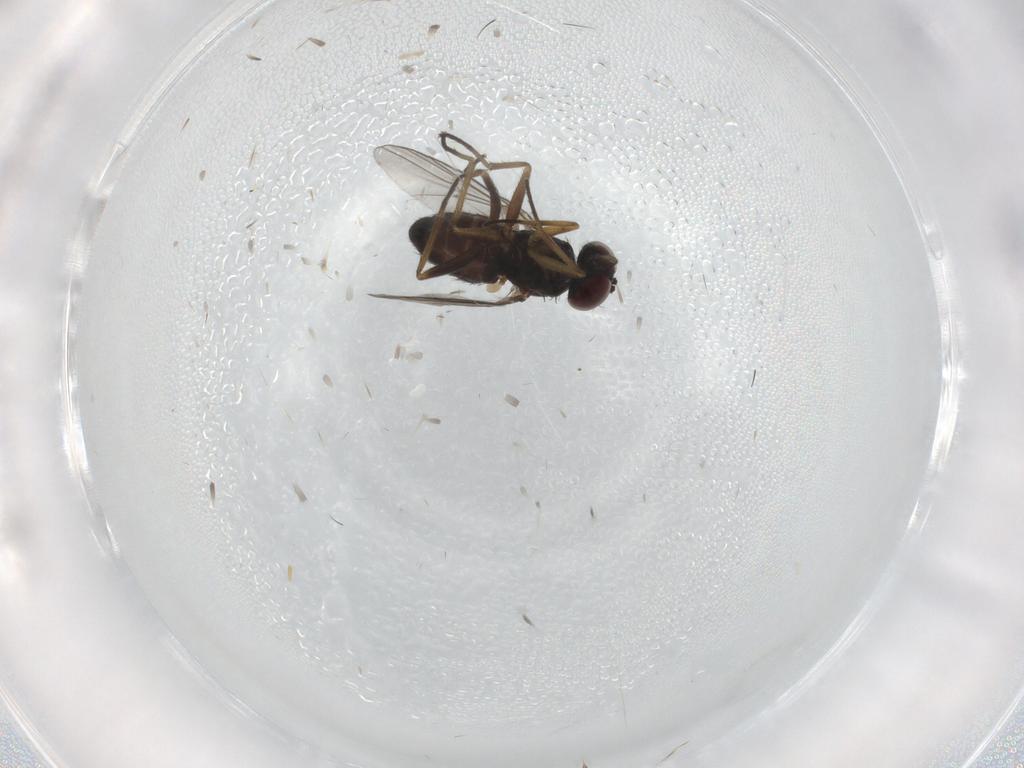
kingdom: Animalia
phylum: Arthropoda
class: Insecta
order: Diptera
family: Dolichopodidae
